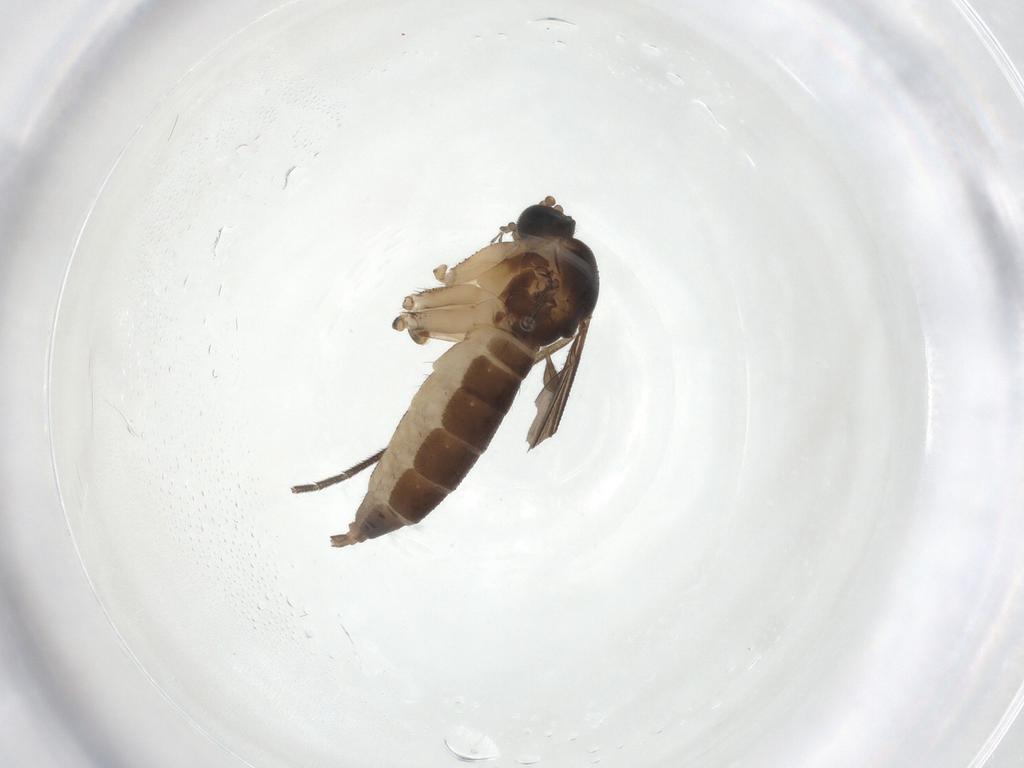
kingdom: Animalia
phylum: Arthropoda
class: Insecta
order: Diptera
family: Sciaridae
